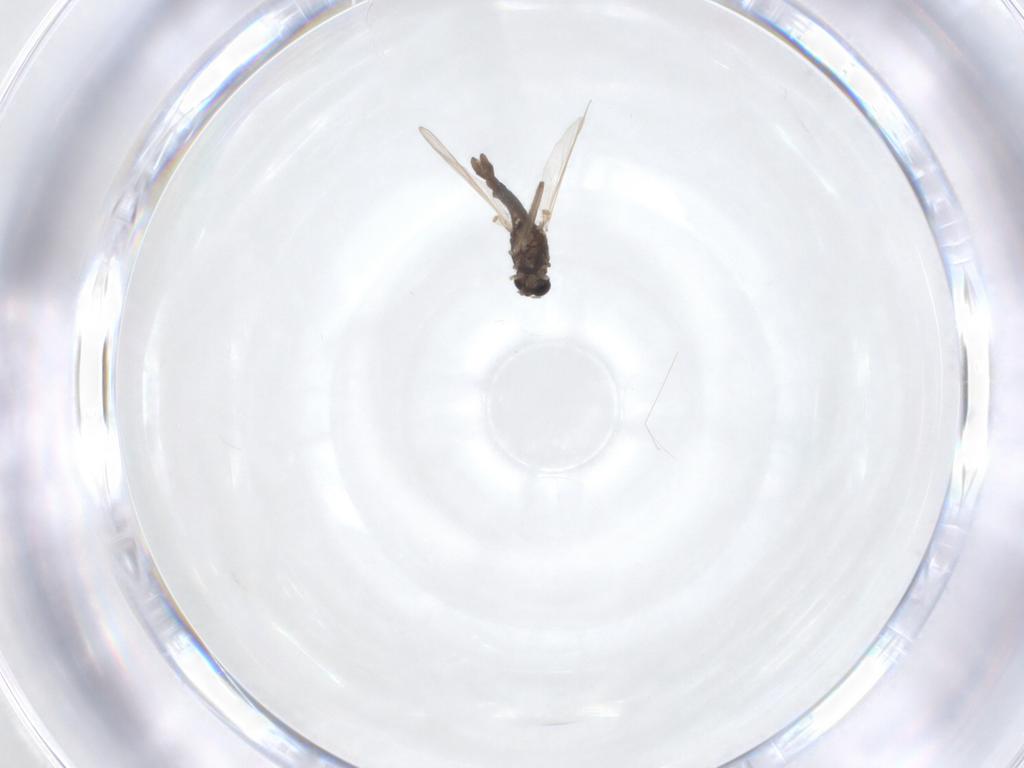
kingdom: Animalia
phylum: Arthropoda
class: Insecta
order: Diptera
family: Chironomidae
